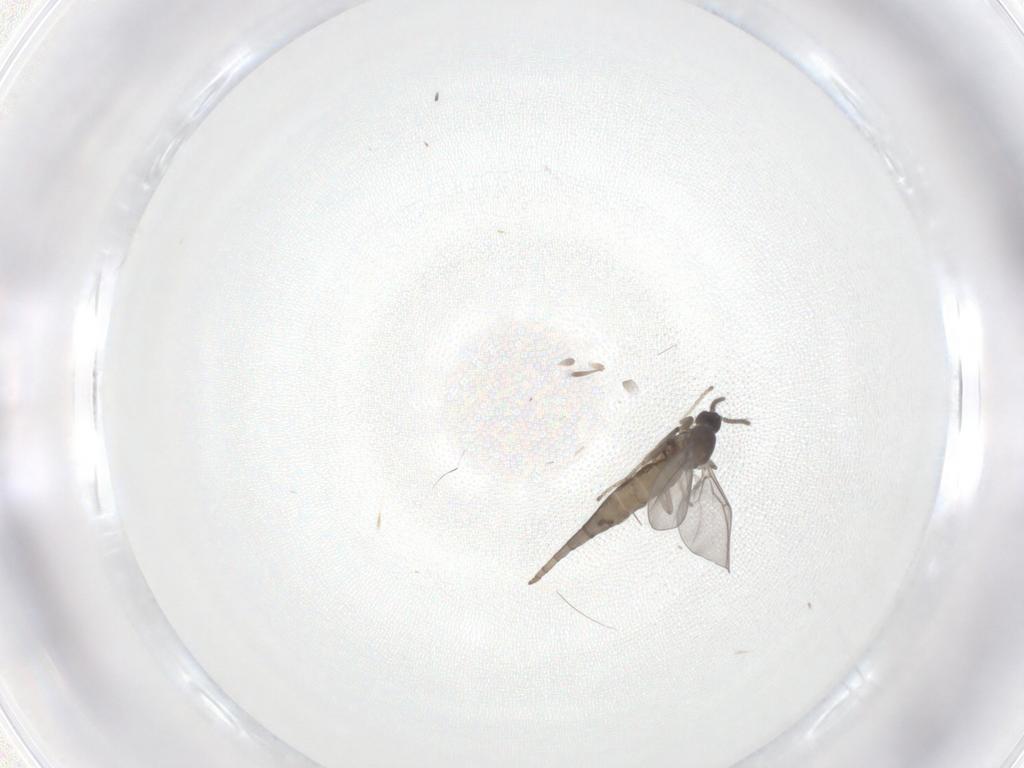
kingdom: Animalia
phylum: Arthropoda
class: Insecta
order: Diptera
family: Cecidomyiidae
